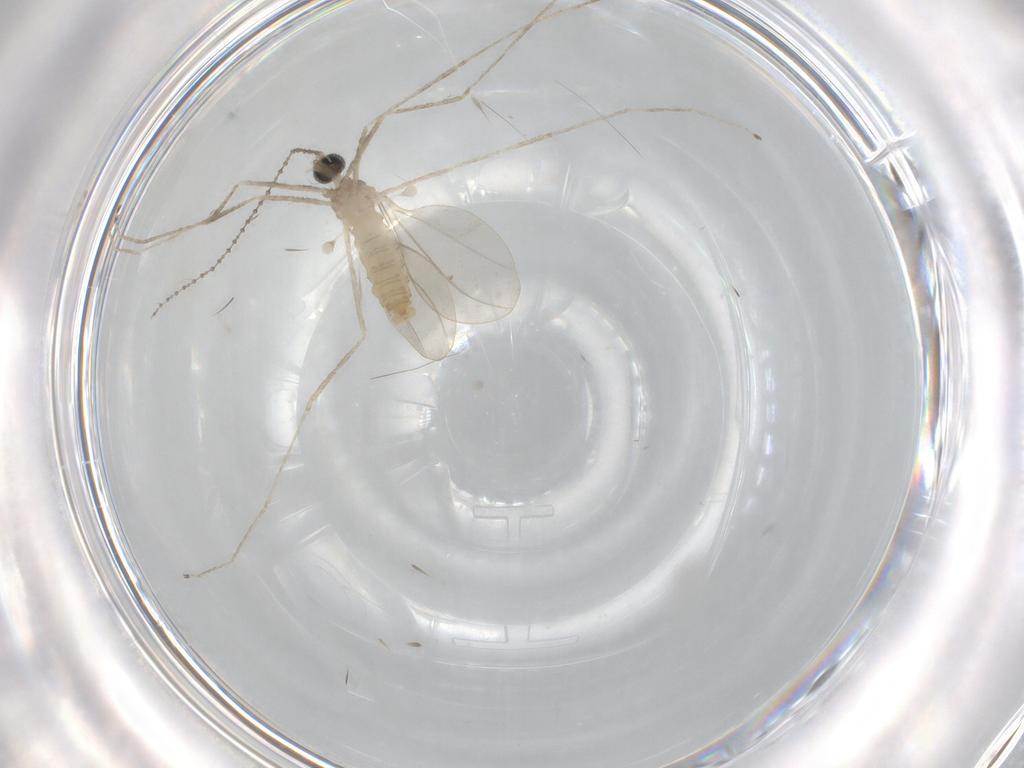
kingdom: Animalia
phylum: Arthropoda
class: Insecta
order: Diptera
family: Cecidomyiidae
